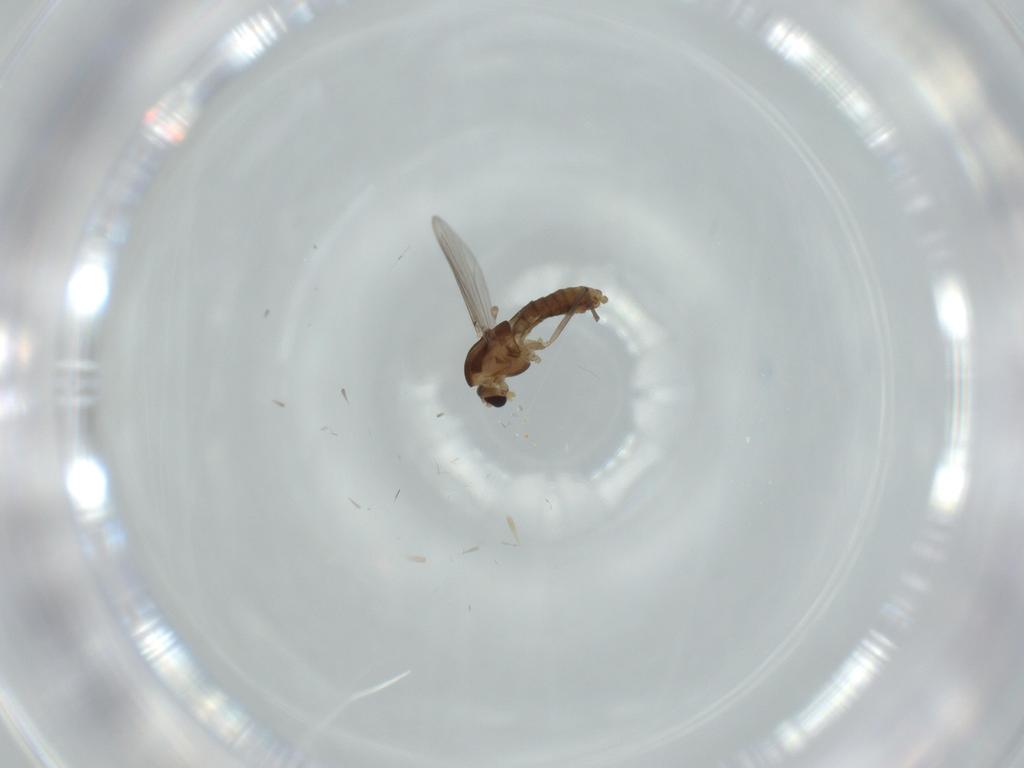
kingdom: Animalia
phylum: Arthropoda
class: Insecta
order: Diptera
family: Chironomidae
